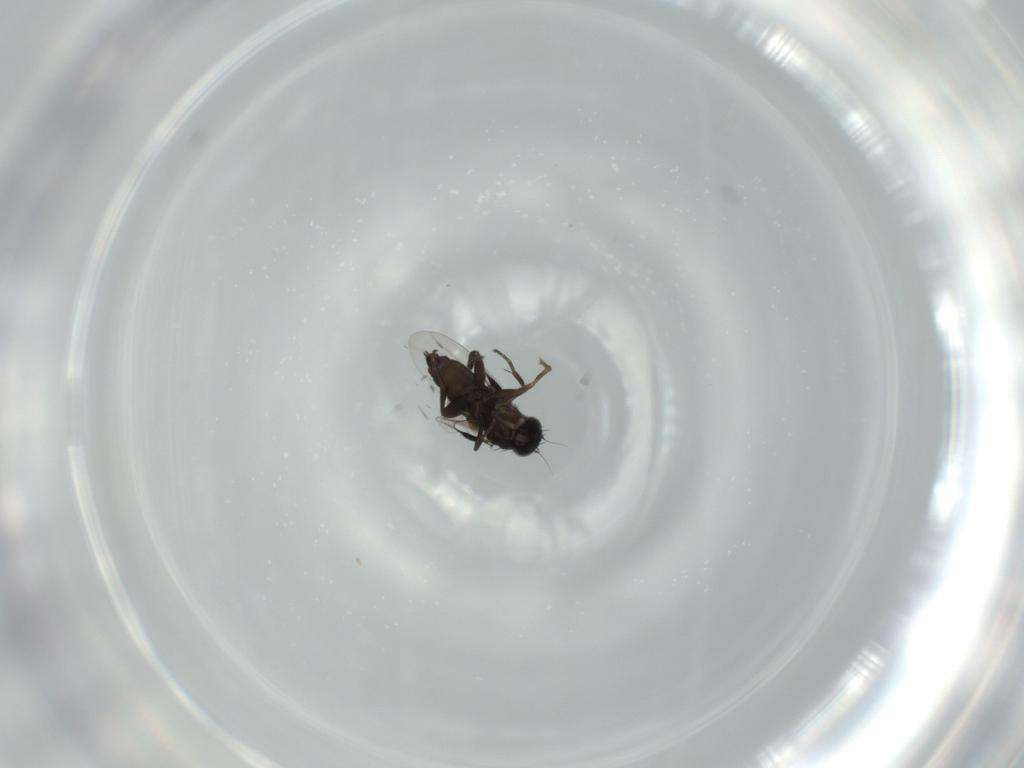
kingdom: Animalia
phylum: Arthropoda
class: Insecta
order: Diptera
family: Phoridae
